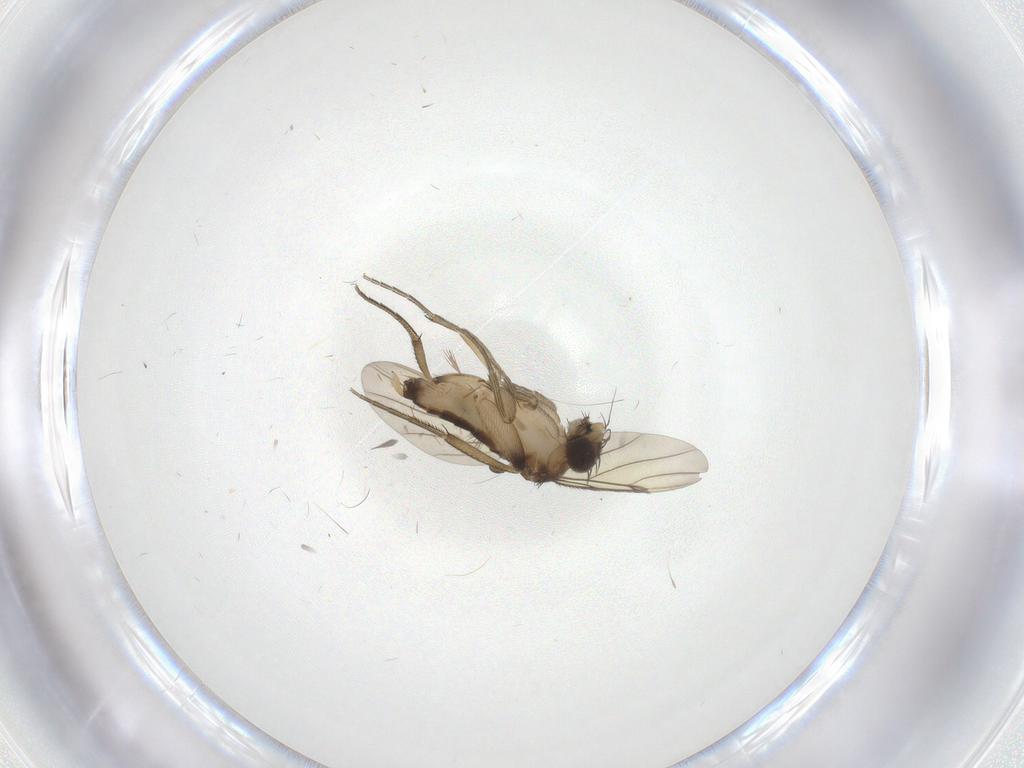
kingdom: Animalia
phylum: Arthropoda
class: Insecta
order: Diptera
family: Phoridae
